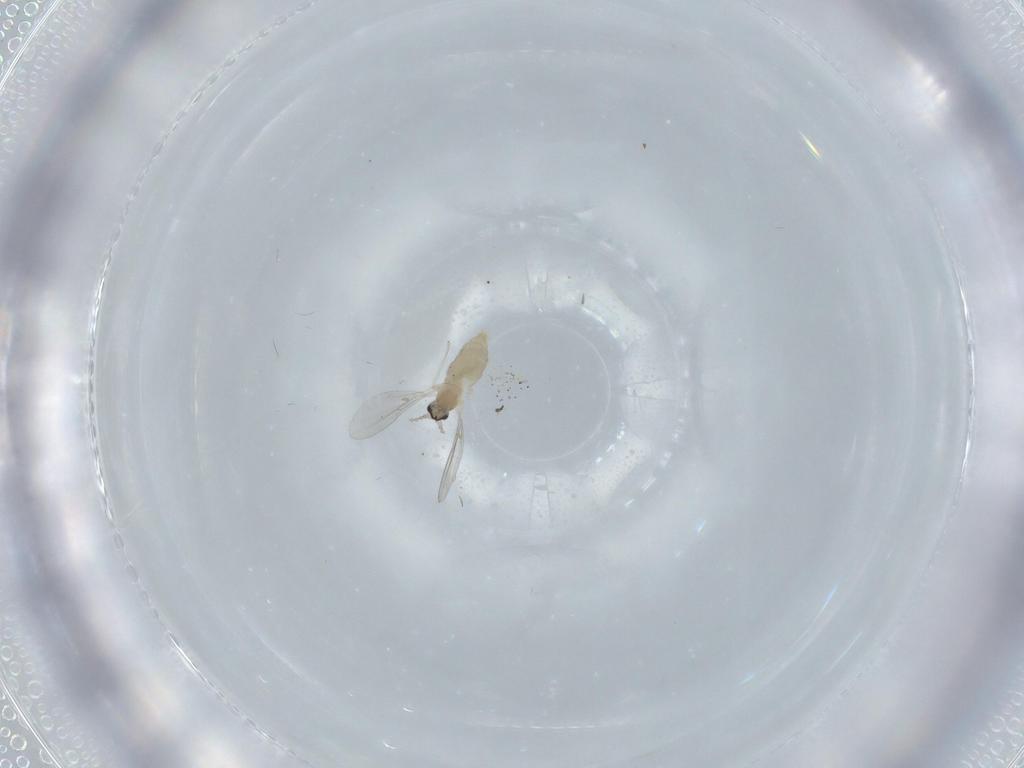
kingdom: Animalia
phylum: Arthropoda
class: Insecta
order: Diptera
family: Cecidomyiidae
